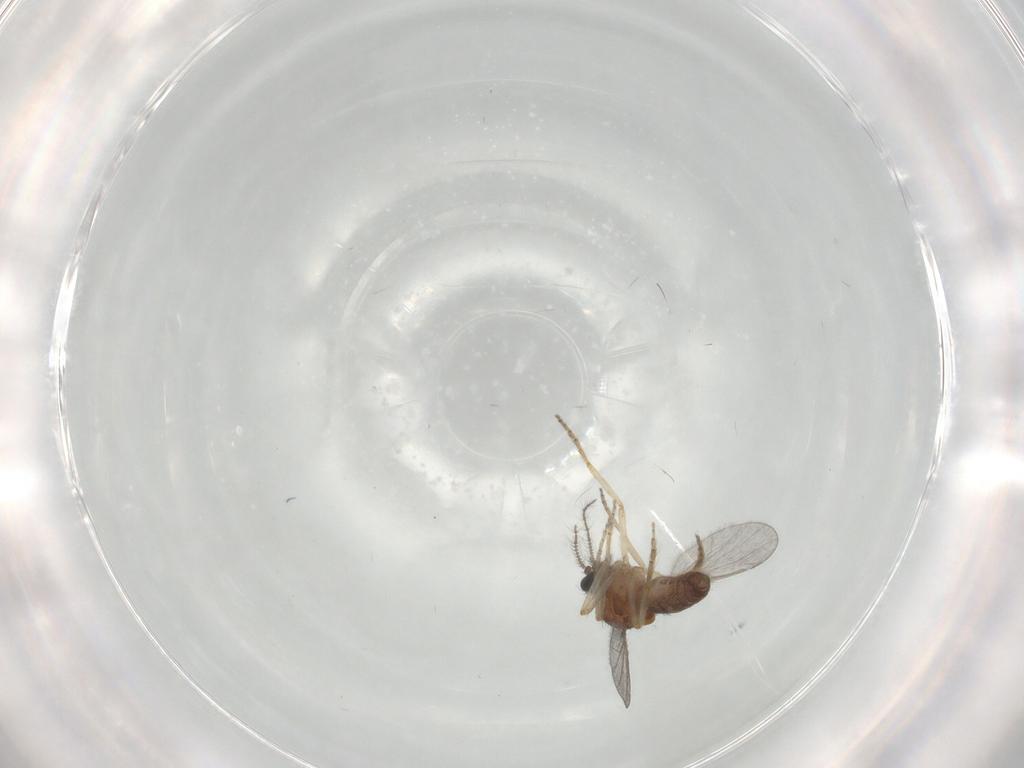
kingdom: Animalia
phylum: Arthropoda
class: Insecta
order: Diptera
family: Ceratopogonidae
